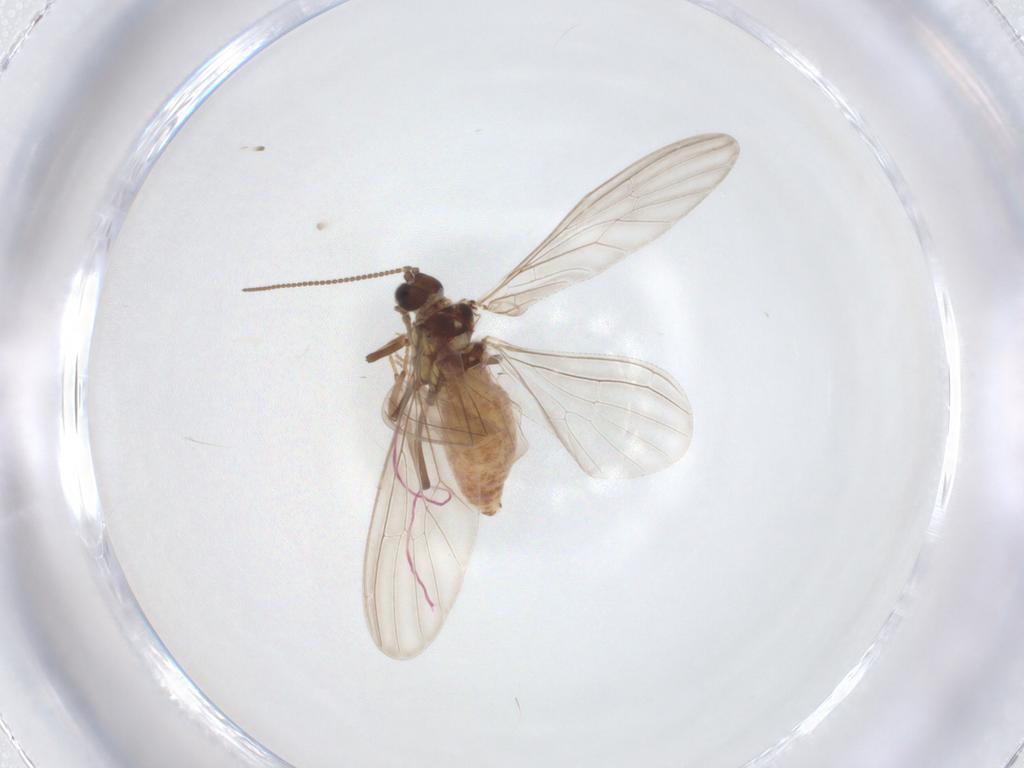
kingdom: Animalia
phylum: Arthropoda
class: Insecta
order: Neuroptera
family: Coniopterygidae
